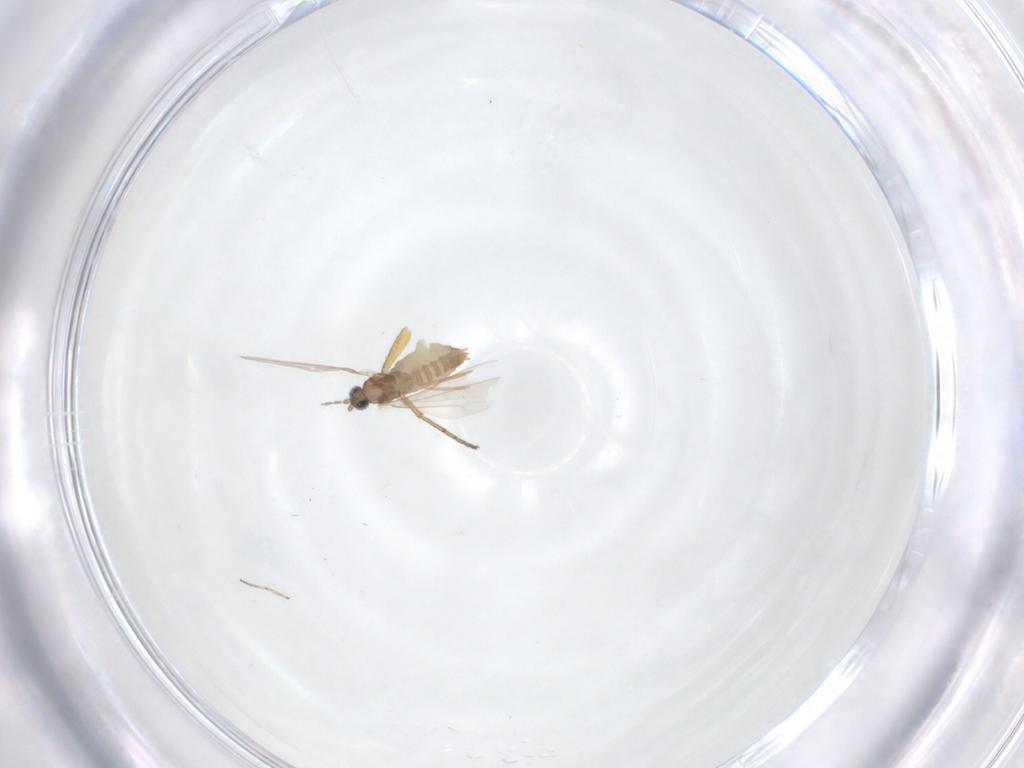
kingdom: Animalia
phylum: Arthropoda
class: Insecta
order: Diptera
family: Cecidomyiidae
